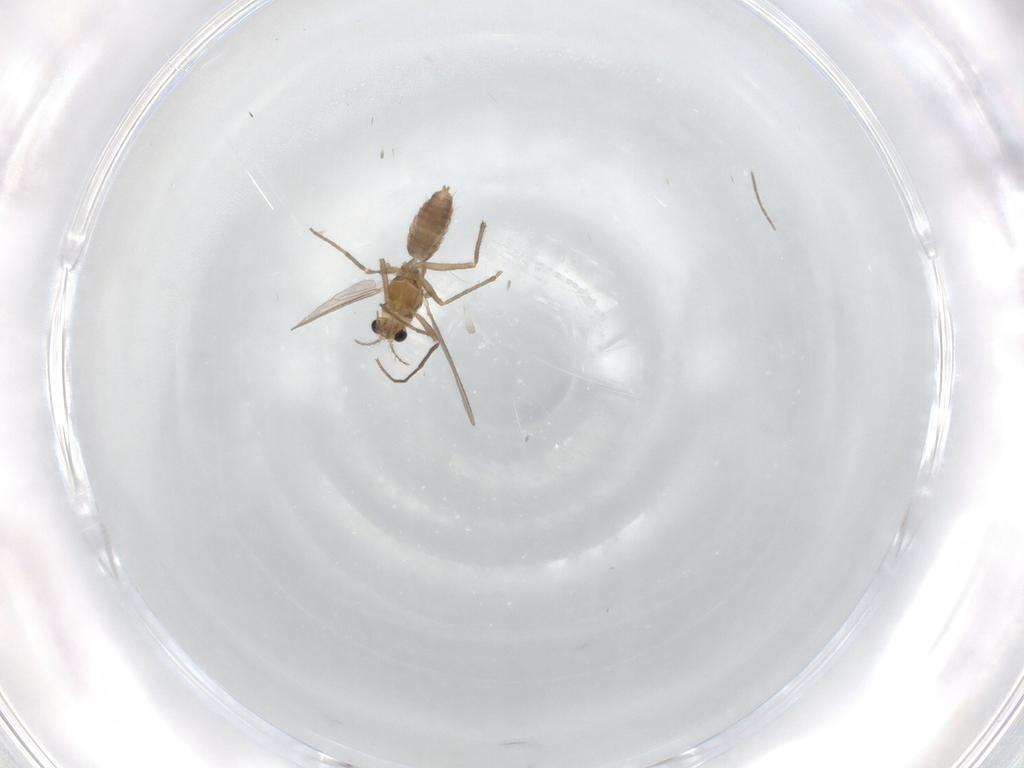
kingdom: Animalia
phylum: Arthropoda
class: Insecta
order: Diptera
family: Chironomidae
